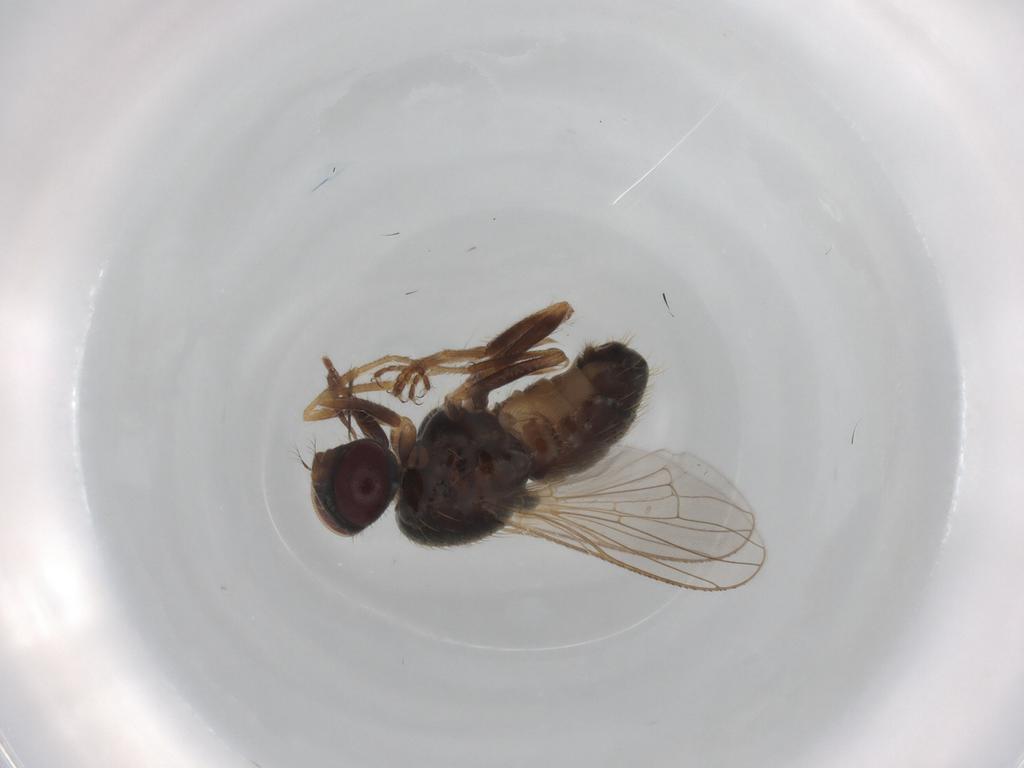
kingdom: Animalia
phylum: Arthropoda
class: Insecta
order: Diptera
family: Muscidae
